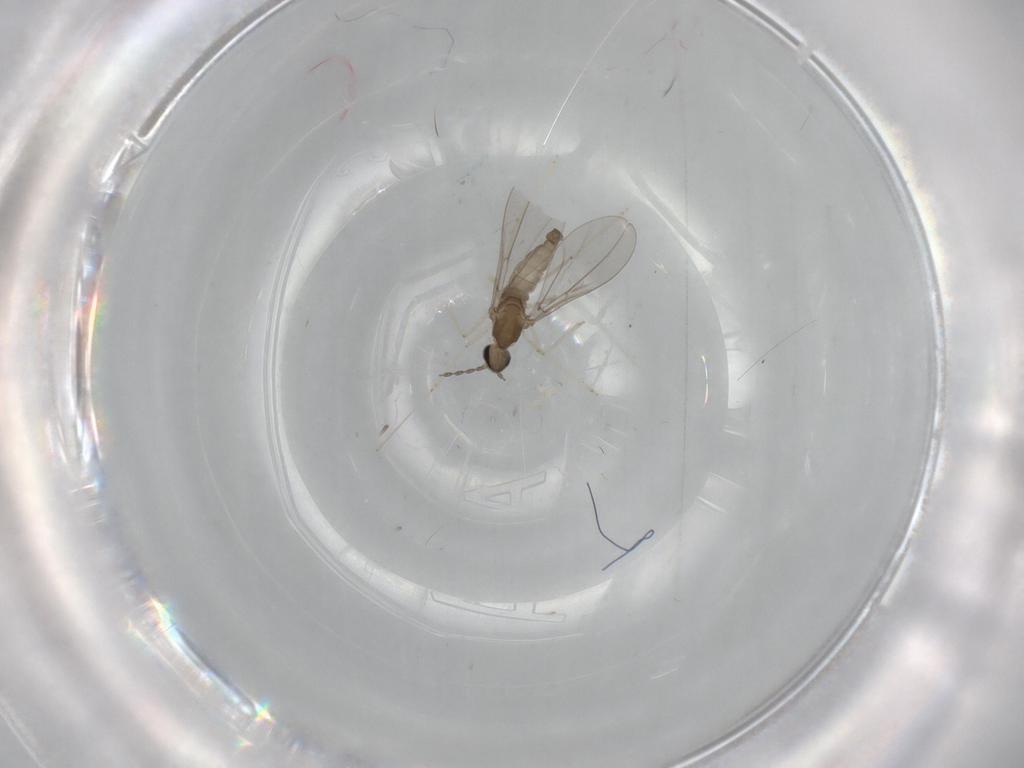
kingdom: Animalia
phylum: Arthropoda
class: Insecta
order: Diptera
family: Cecidomyiidae
